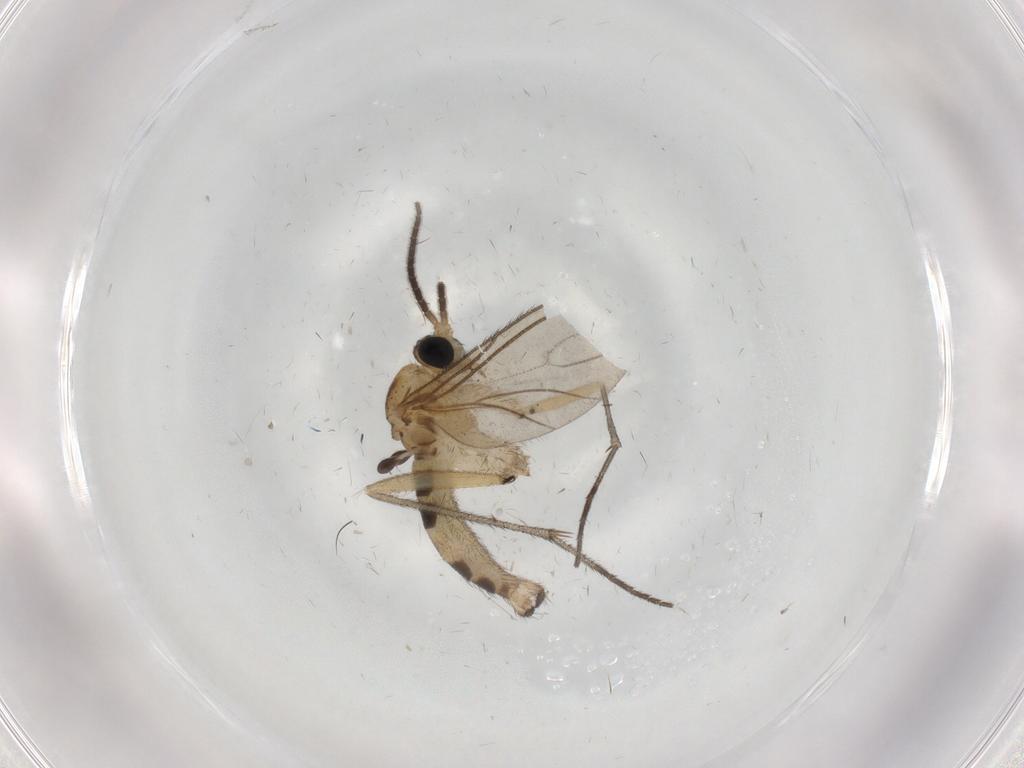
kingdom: Animalia
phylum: Arthropoda
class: Insecta
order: Diptera
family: Sciaridae
